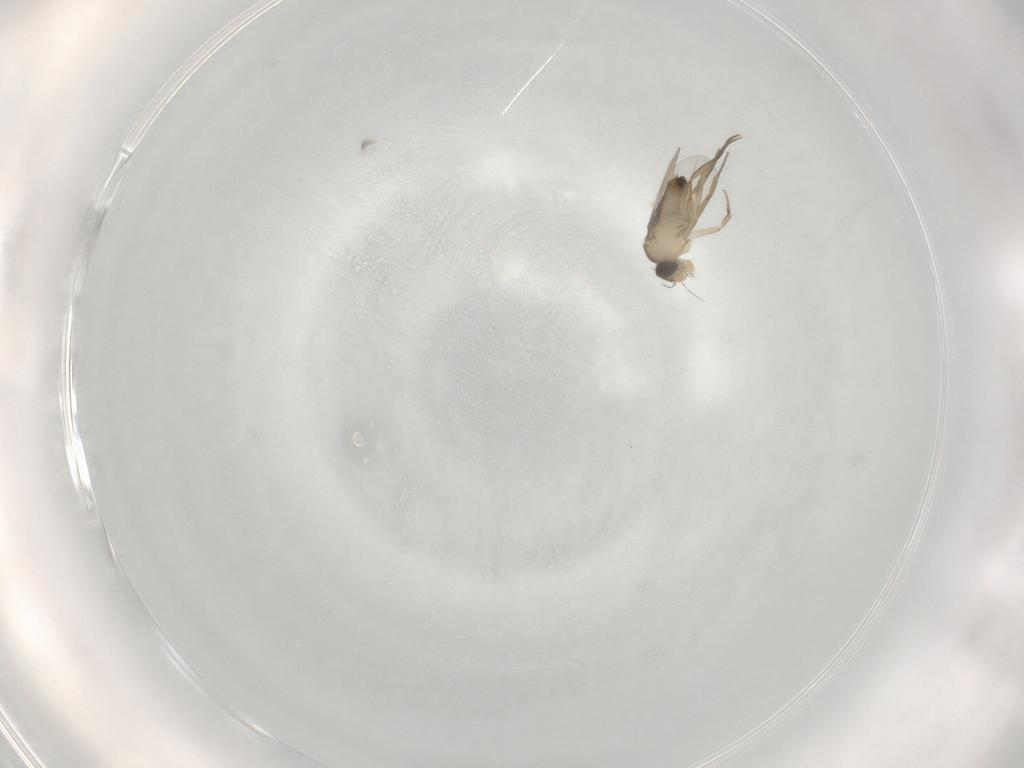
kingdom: Animalia
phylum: Arthropoda
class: Insecta
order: Diptera
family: Phoridae
